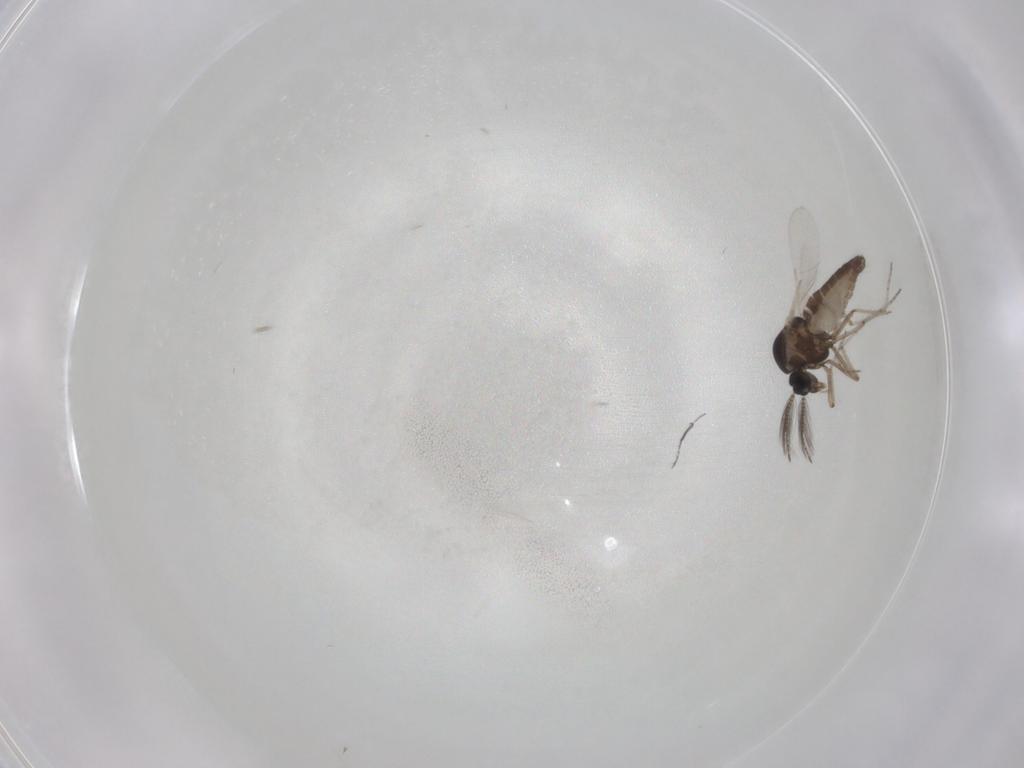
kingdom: Animalia
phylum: Arthropoda
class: Insecta
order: Diptera
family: Ceratopogonidae
